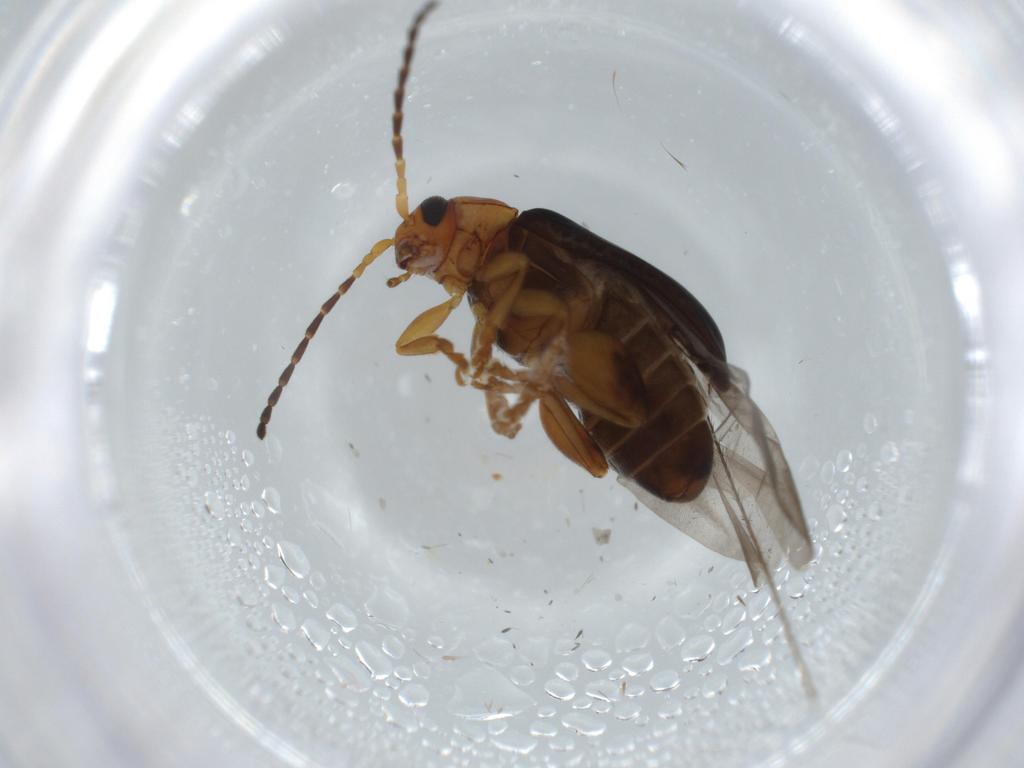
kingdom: Animalia
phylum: Arthropoda
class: Insecta
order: Coleoptera
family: Chrysomelidae
